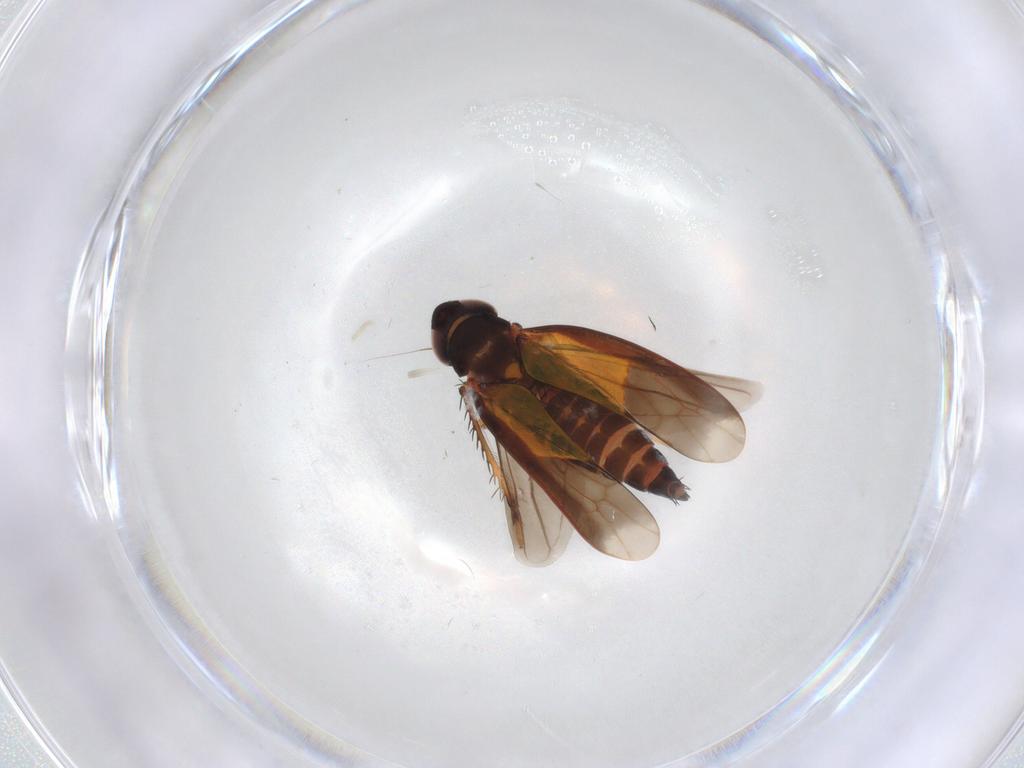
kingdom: Animalia
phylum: Arthropoda
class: Insecta
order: Hemiptera
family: Cicadellidae
